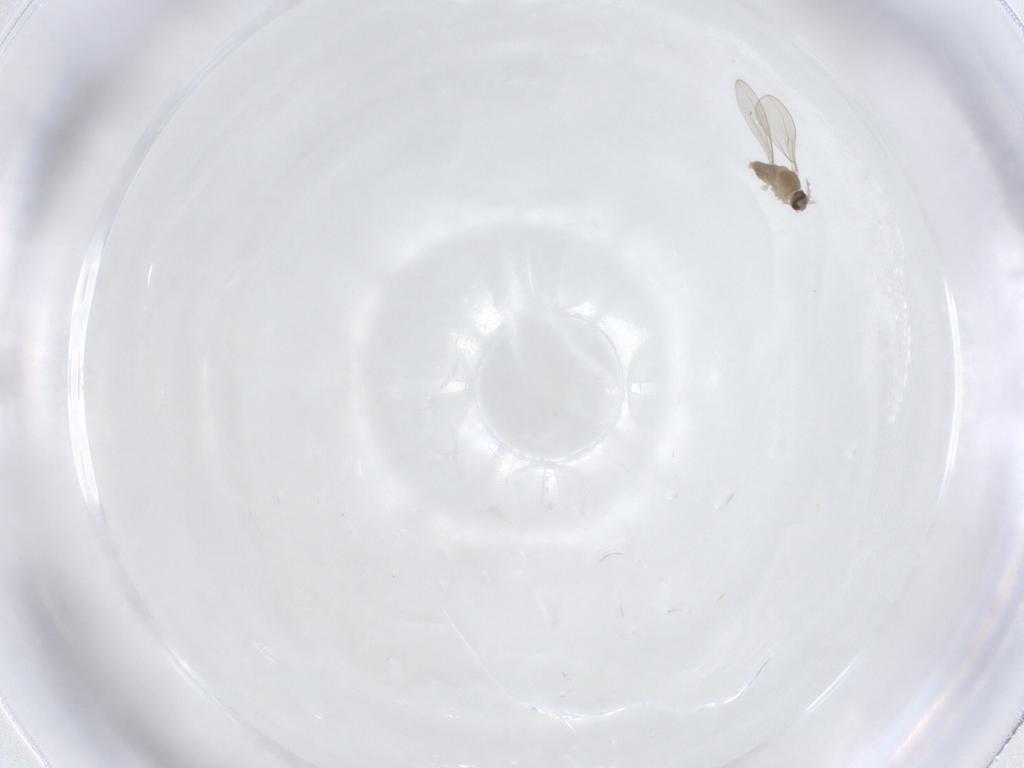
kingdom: Animalia
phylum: Arthropoda
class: Insecta
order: Diptera
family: Cecidomyiidae
